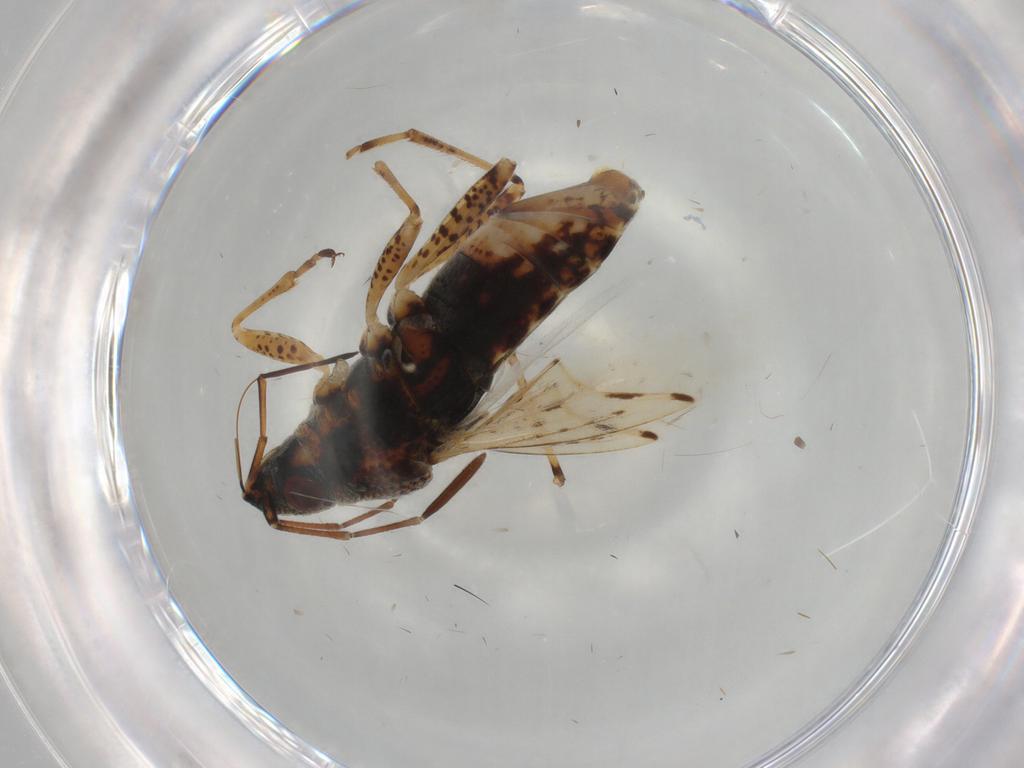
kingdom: Animalia
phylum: Arthropoda
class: Insecta
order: Hemiptera
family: Lygaeidae
